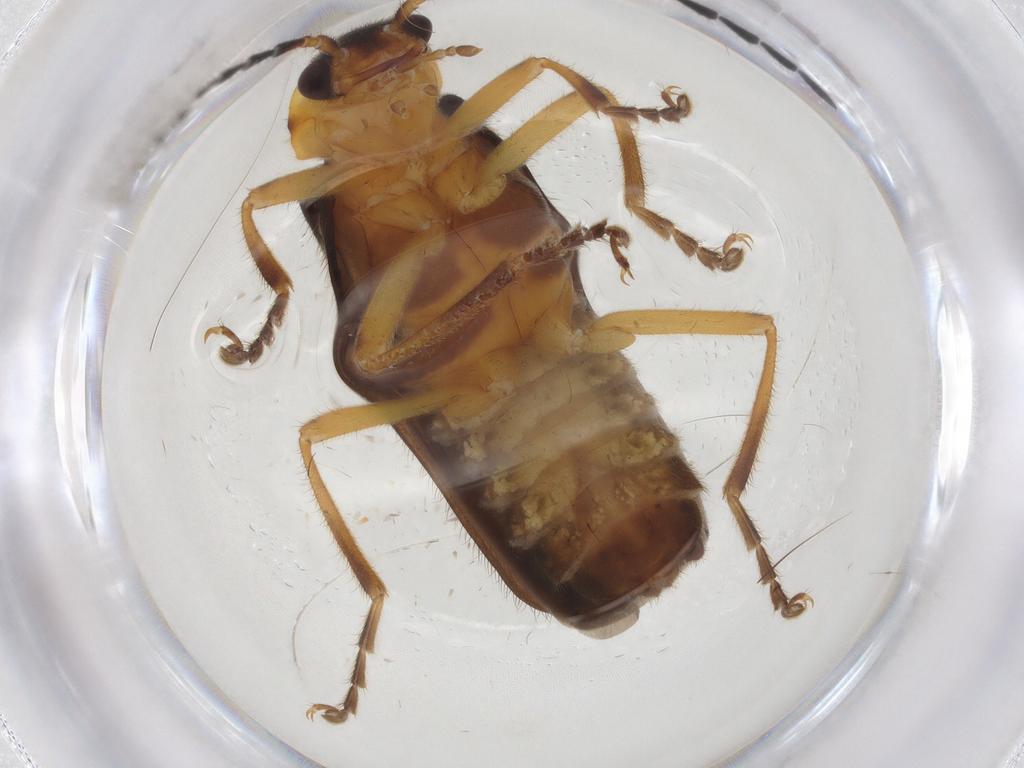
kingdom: Animalia
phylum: Arthropoda
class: Insecta
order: Coleoptera
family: Cantharidae
